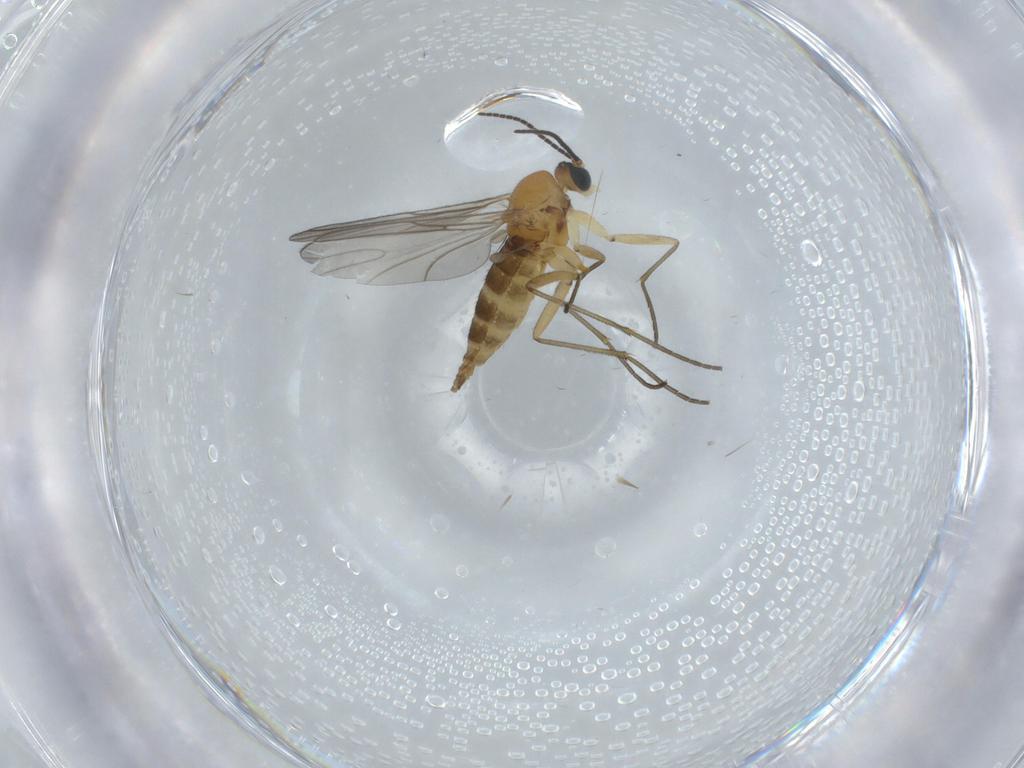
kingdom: Animalia
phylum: Arthropoda
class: Insecta
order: Diptera
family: Sciaridae
